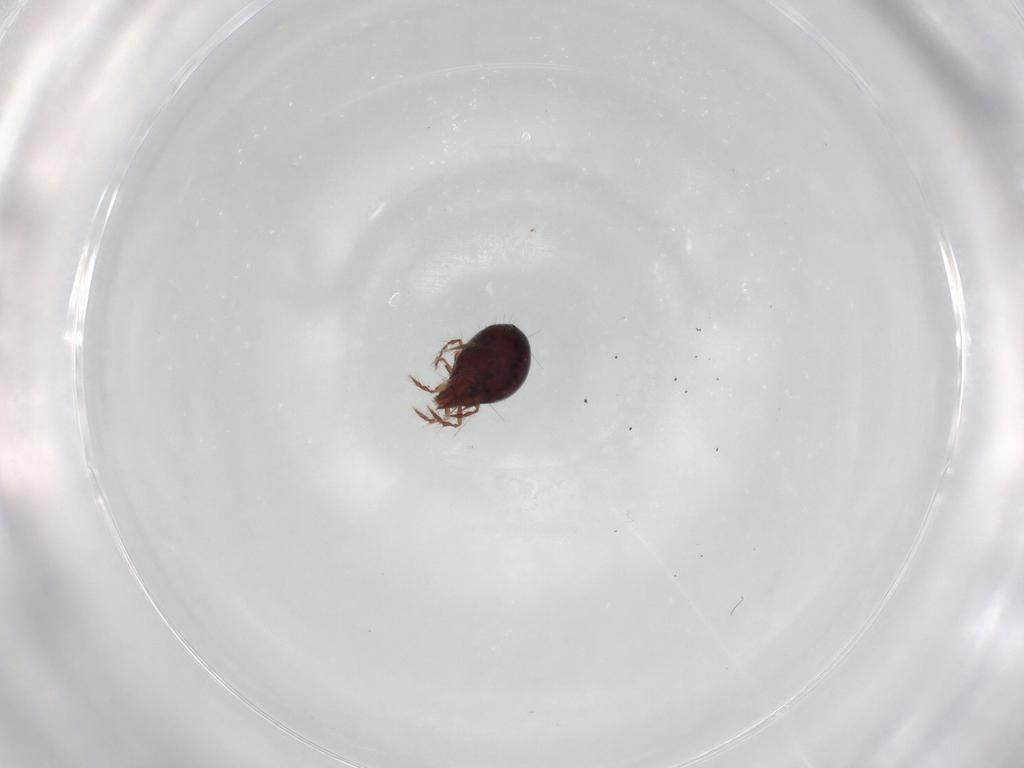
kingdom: Animalia
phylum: Arthropoda
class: Arachnida
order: Sarcoptiformes
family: Ceratoppiidae
